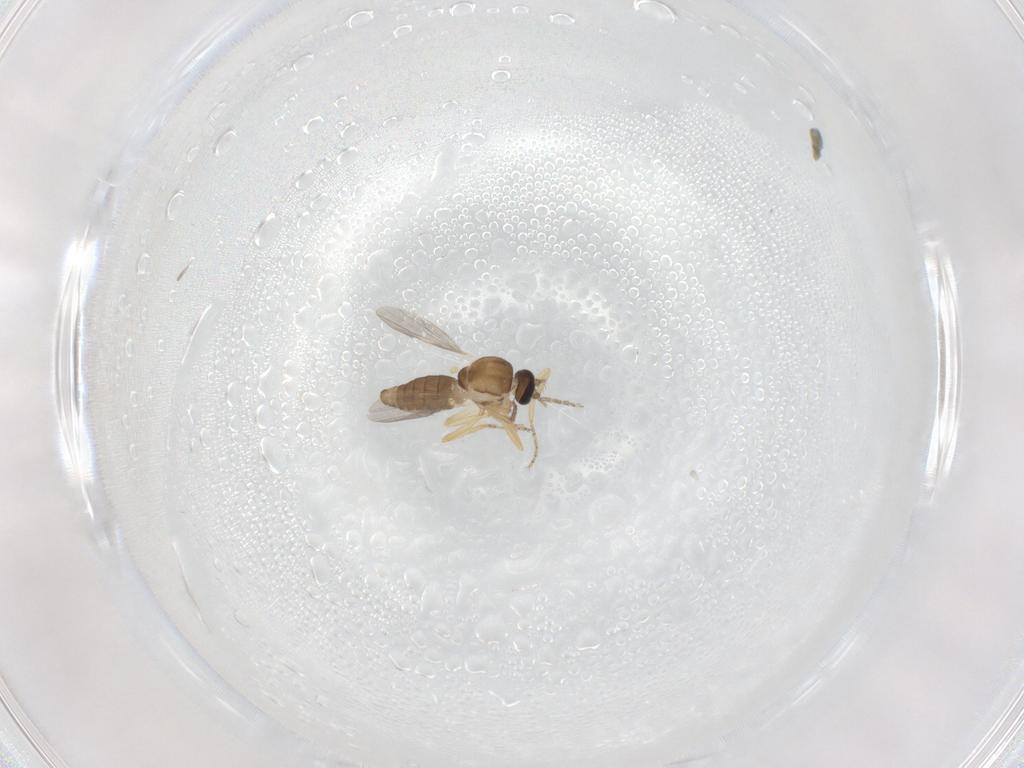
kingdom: Animalia
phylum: Arthropoda
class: Insecta
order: Diptera
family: Ceratopogonidae
